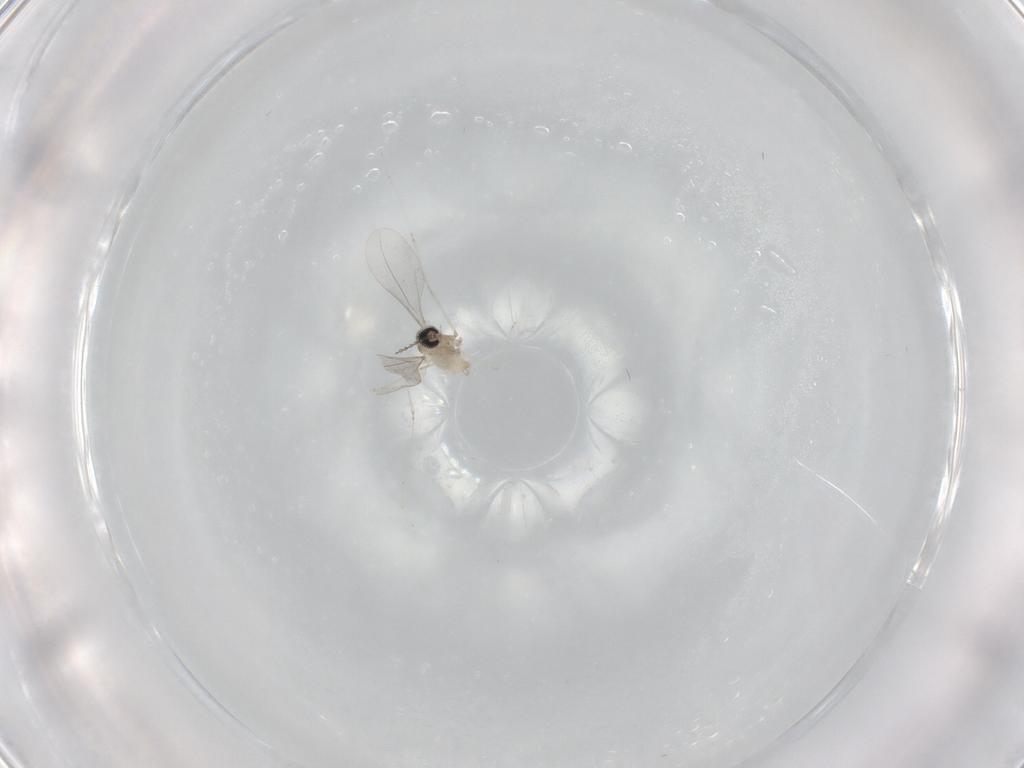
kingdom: Animalia
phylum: Arthropoda
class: Insecta
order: Diptera
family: Cecidomyiidae
